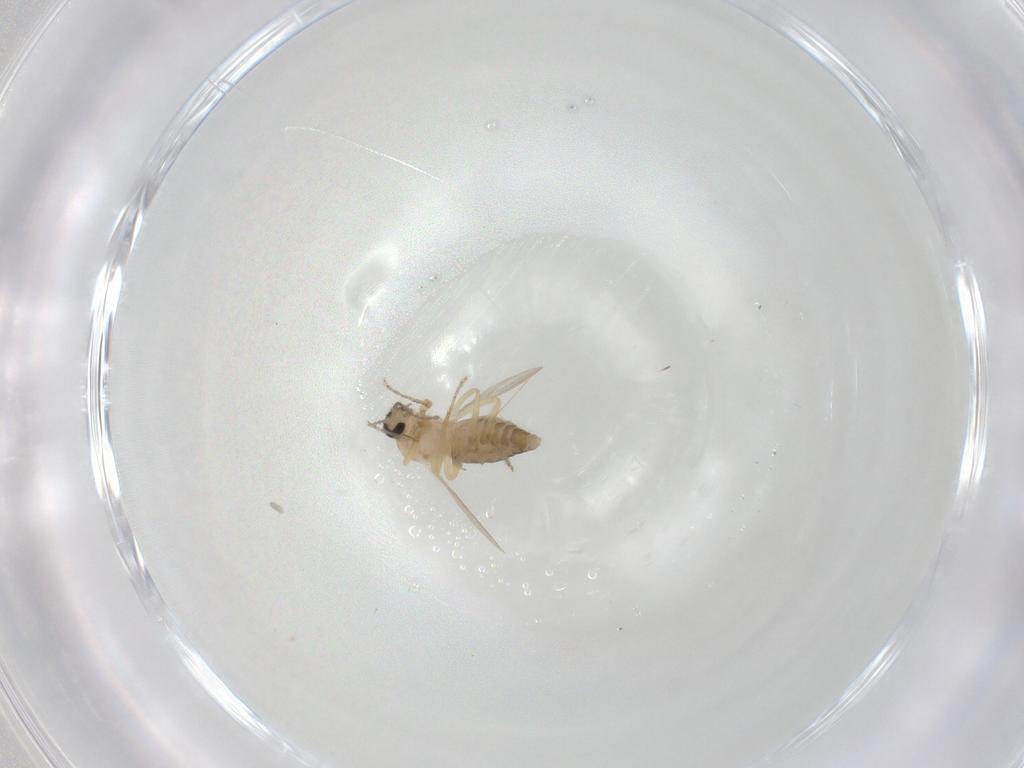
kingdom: Animalia
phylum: Arthropoda
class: Insecta
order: Diptera
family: Ceratopogonidae
